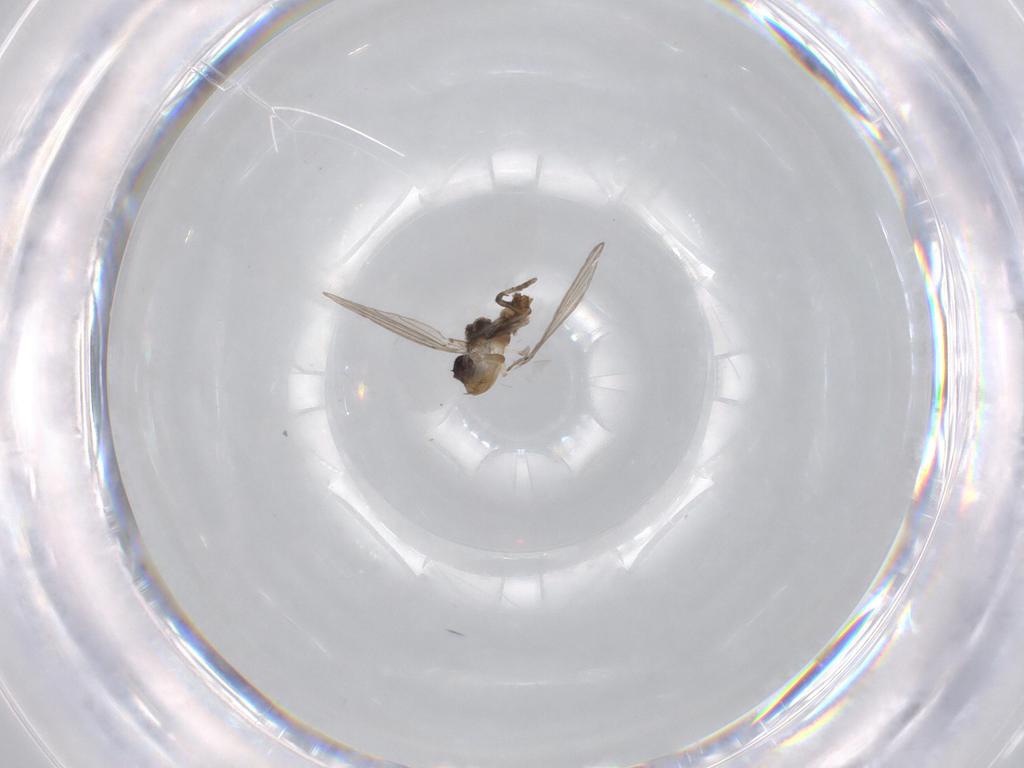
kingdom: Animalia
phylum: Arthropoda
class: Insecta
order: Diptera
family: Psychodidae
